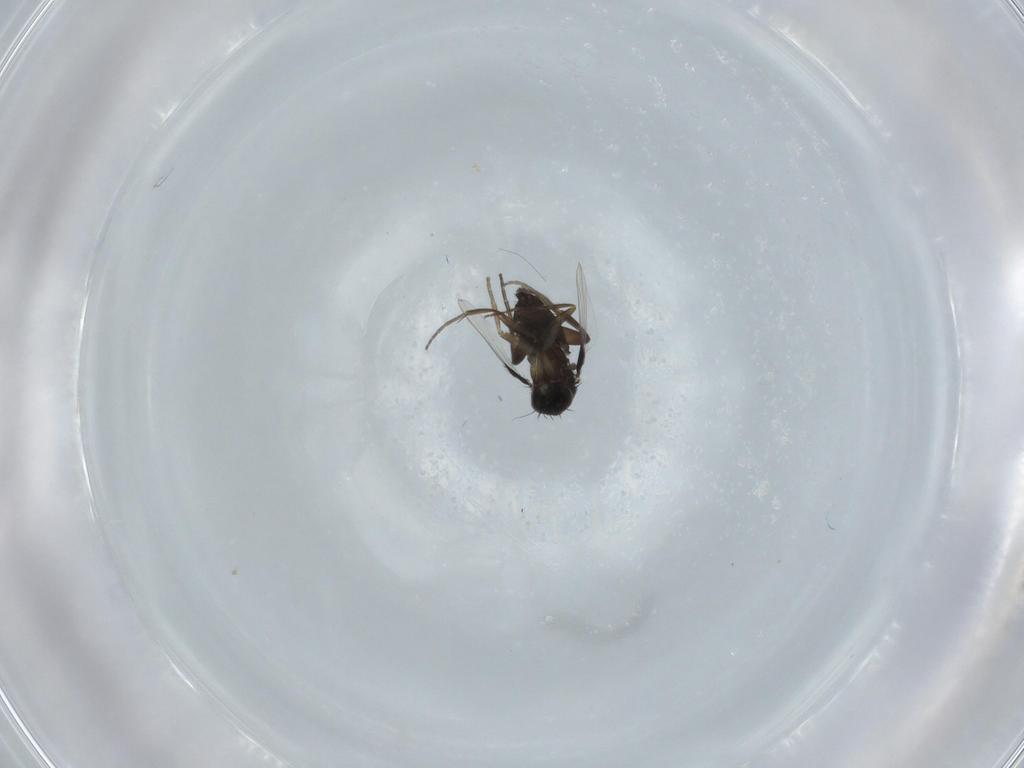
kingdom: Animalia
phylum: Arthropoda
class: Insecta
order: Diptera
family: Phoridae
